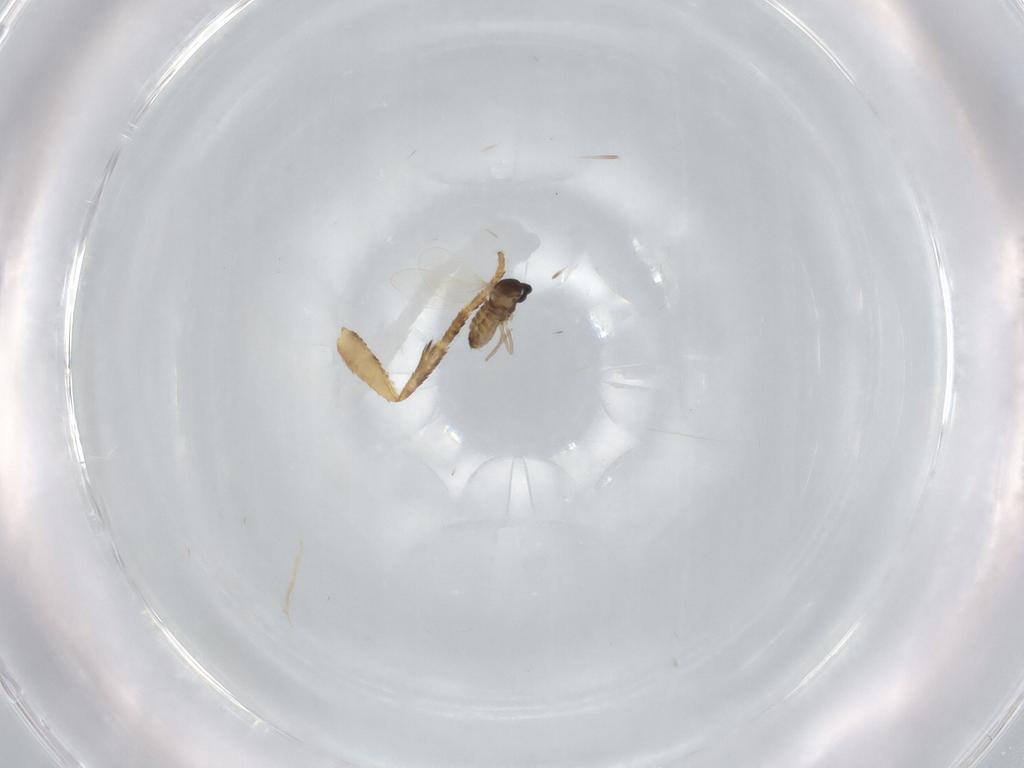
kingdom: Animalia
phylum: Arthropoda
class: Insecta
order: Diptera
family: Cecidomyiidae
